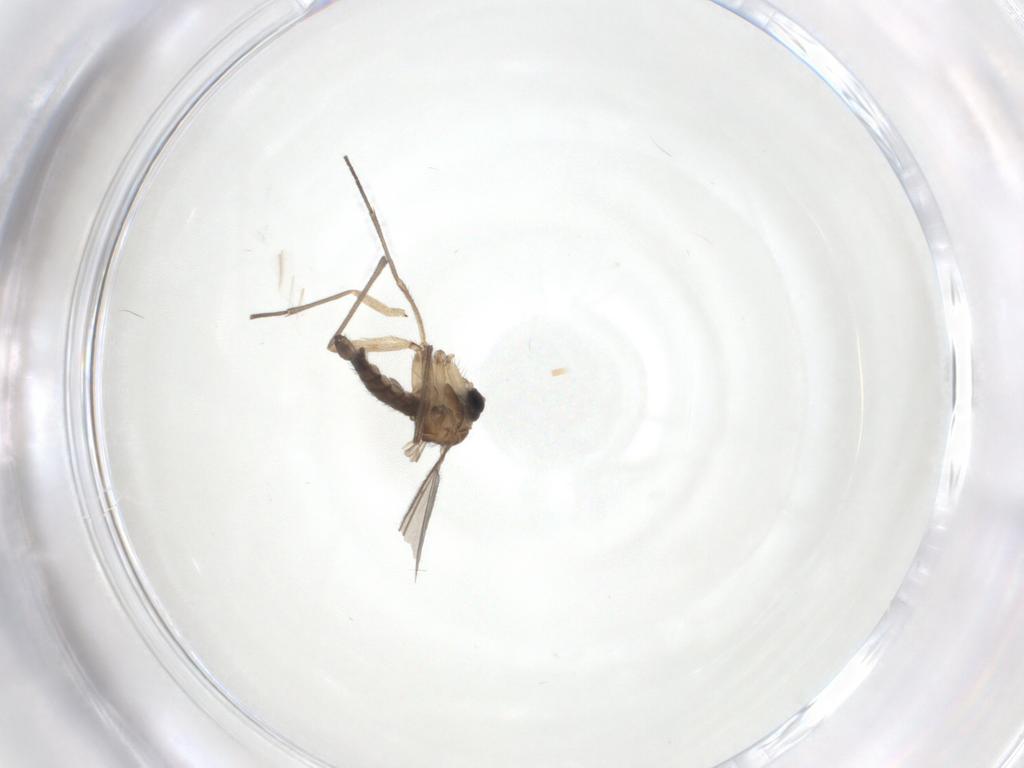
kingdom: Animalia
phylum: Arthropoda
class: Insecta
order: Diptera
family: Sciaridae
